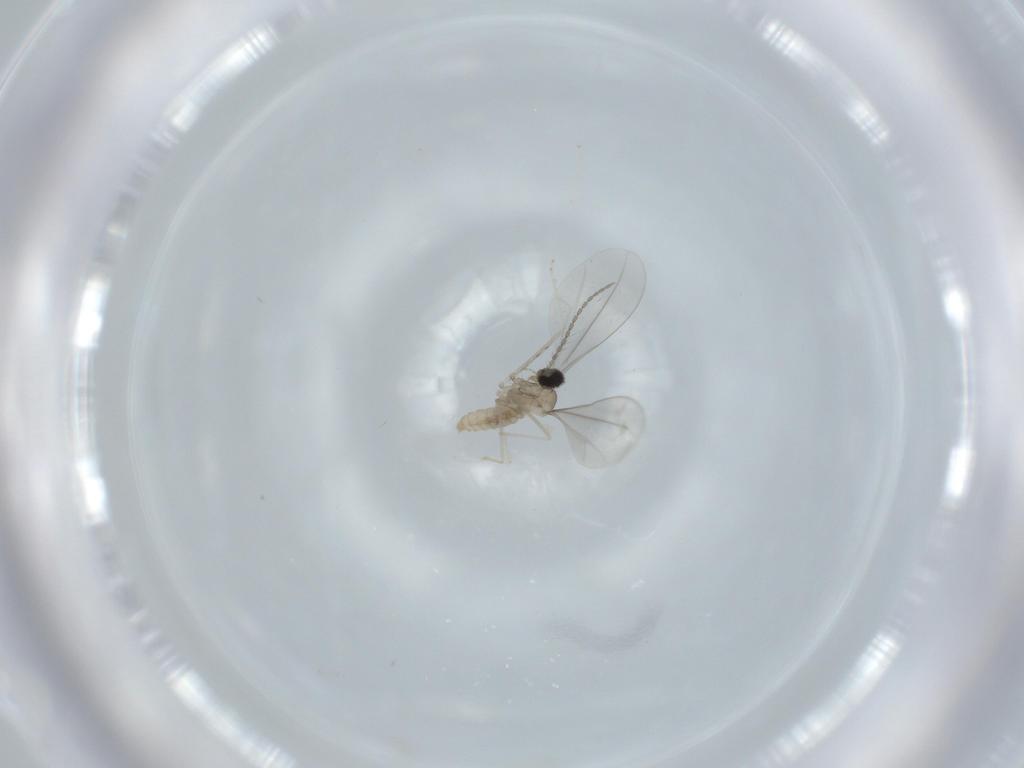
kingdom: Animalia
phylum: Arthropoda
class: Insecta
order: Diptera
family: Cecidomyiidae
